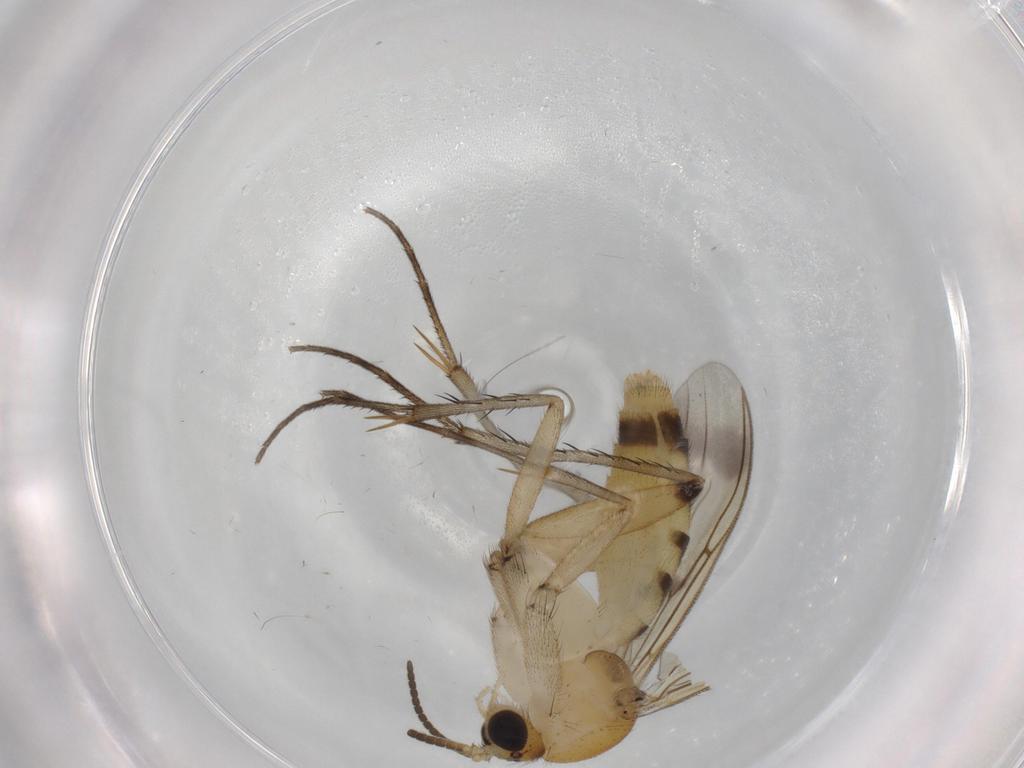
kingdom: Animalia
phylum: Arthropoda
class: Insecta
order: Diptera
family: Mycetophilidae
